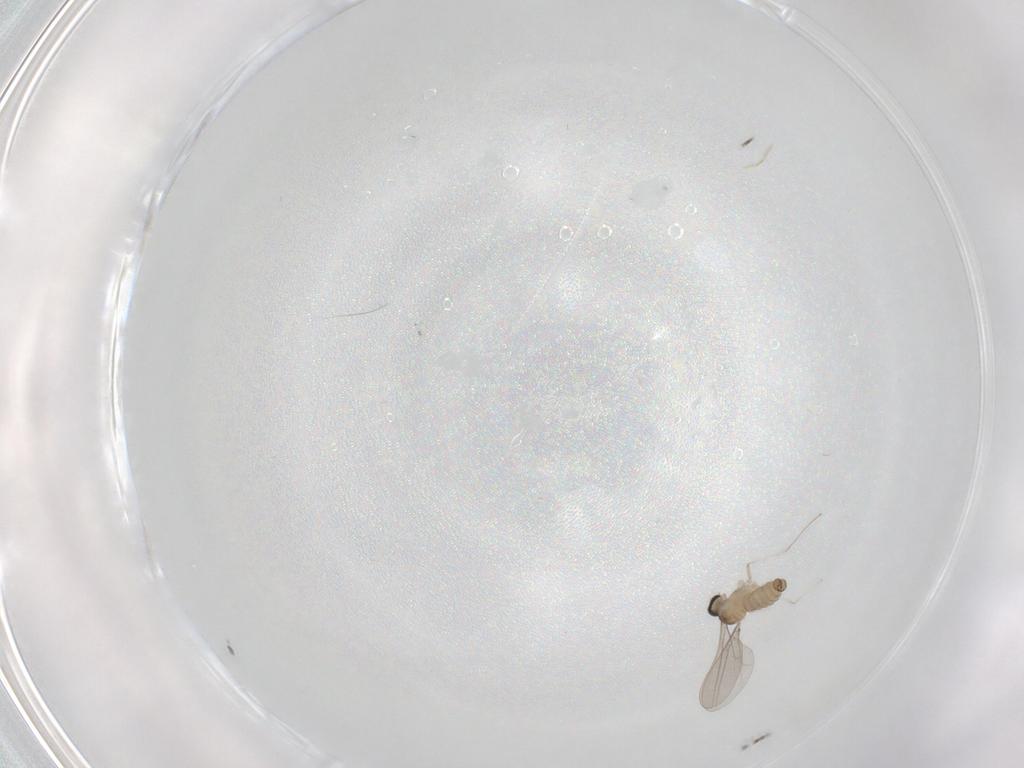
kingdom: Animalia
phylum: Arthropoda
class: Insecta
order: Diptera
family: Cecidomyiidae
